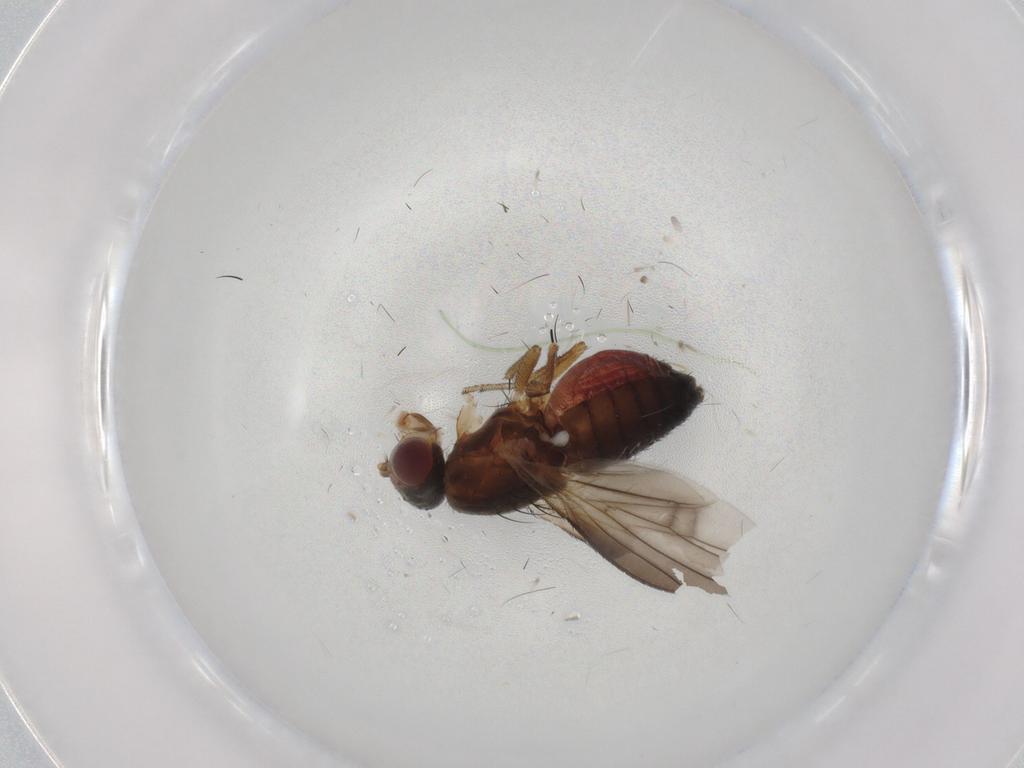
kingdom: Animalia
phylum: Arthropoda
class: Insecta
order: Diptera
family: Heleomyzidae
